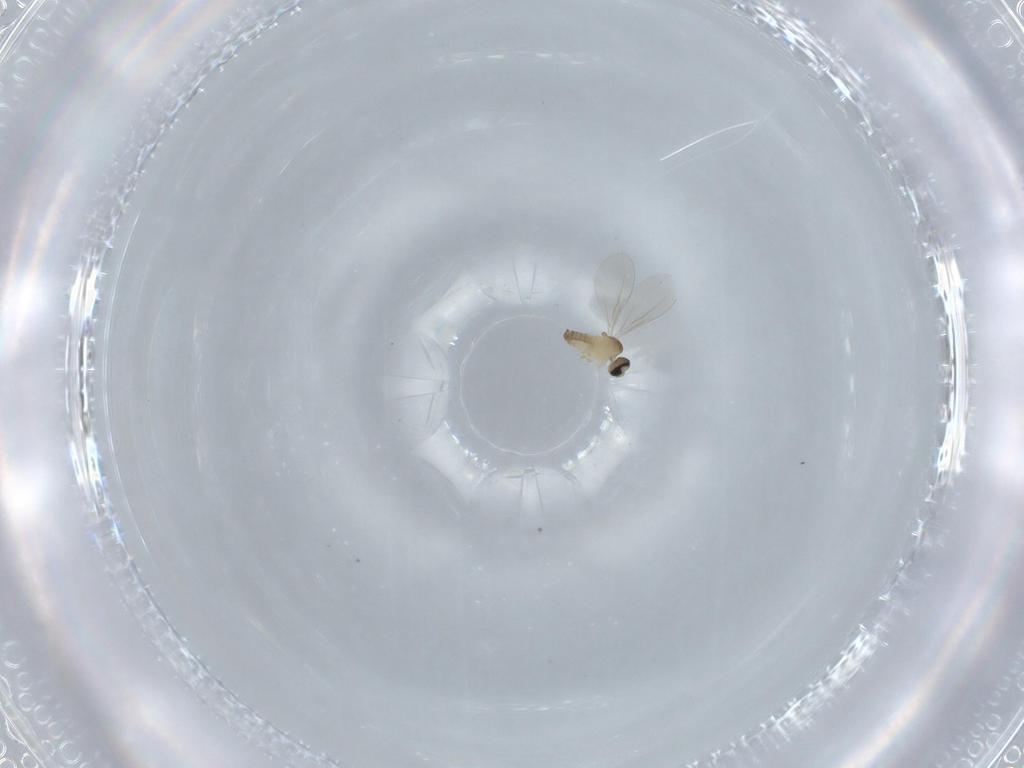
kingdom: Animalia
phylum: Arthropoda
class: Insecta
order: Diptera
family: Cecidomyiidae
